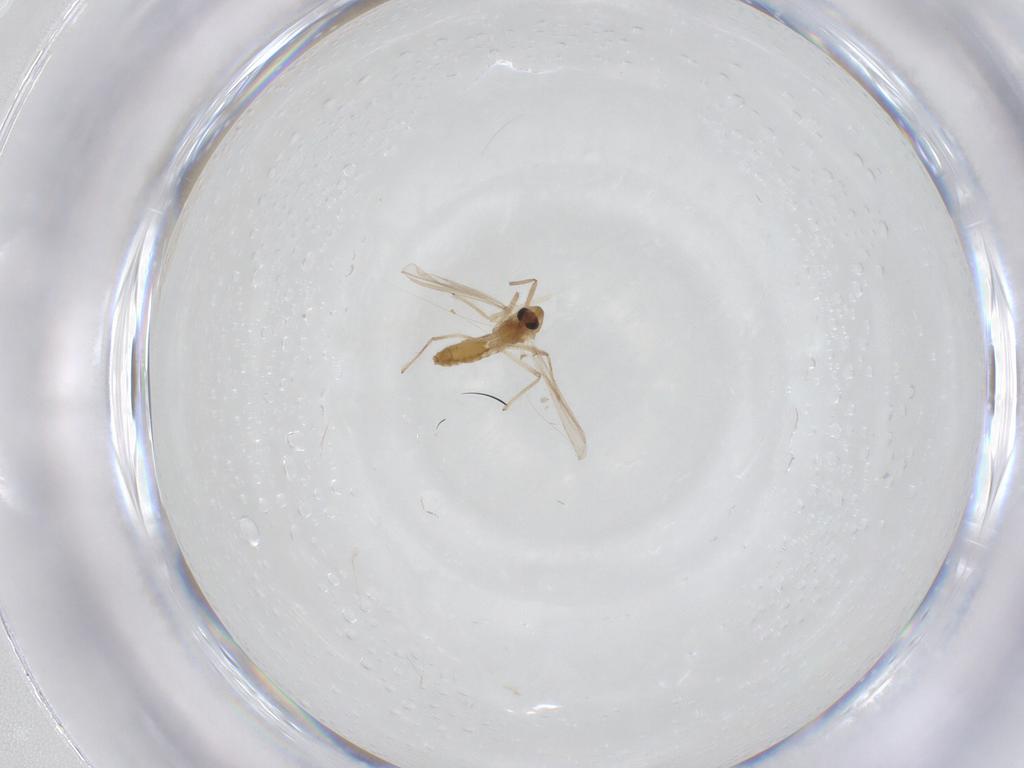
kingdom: Animalia
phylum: Arthropoda
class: Insecta
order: Diptera
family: Chironomidae
